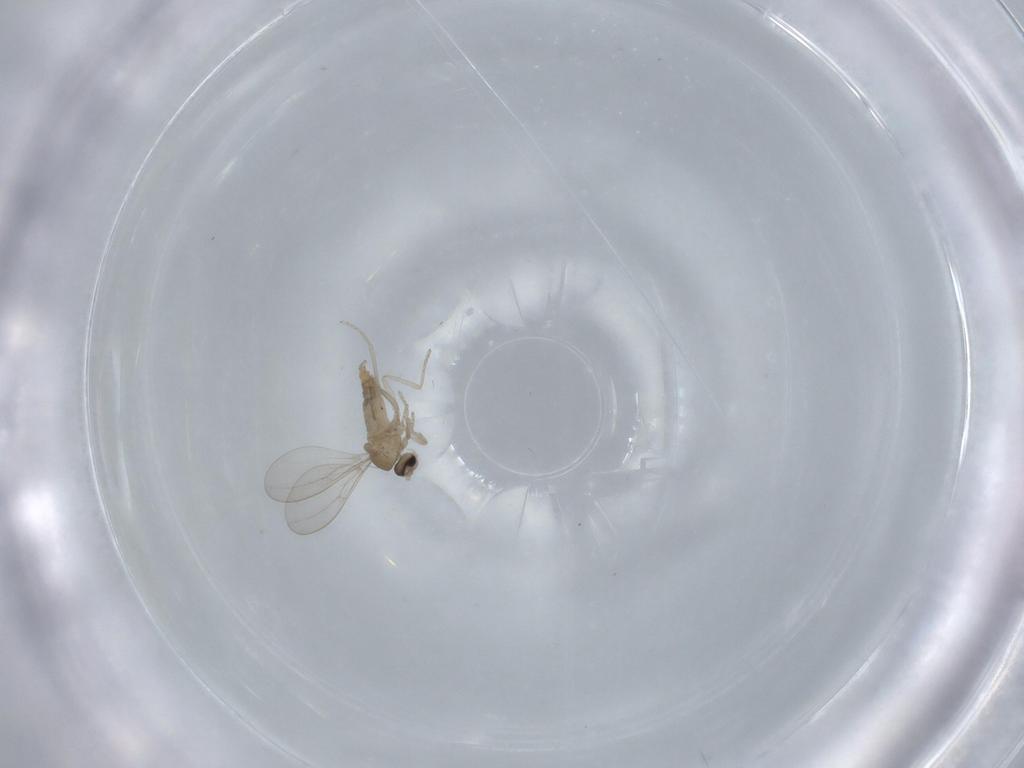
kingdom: Animalia
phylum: Arthropoda
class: Insecta
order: Diptera
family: Cecidomyiidae
